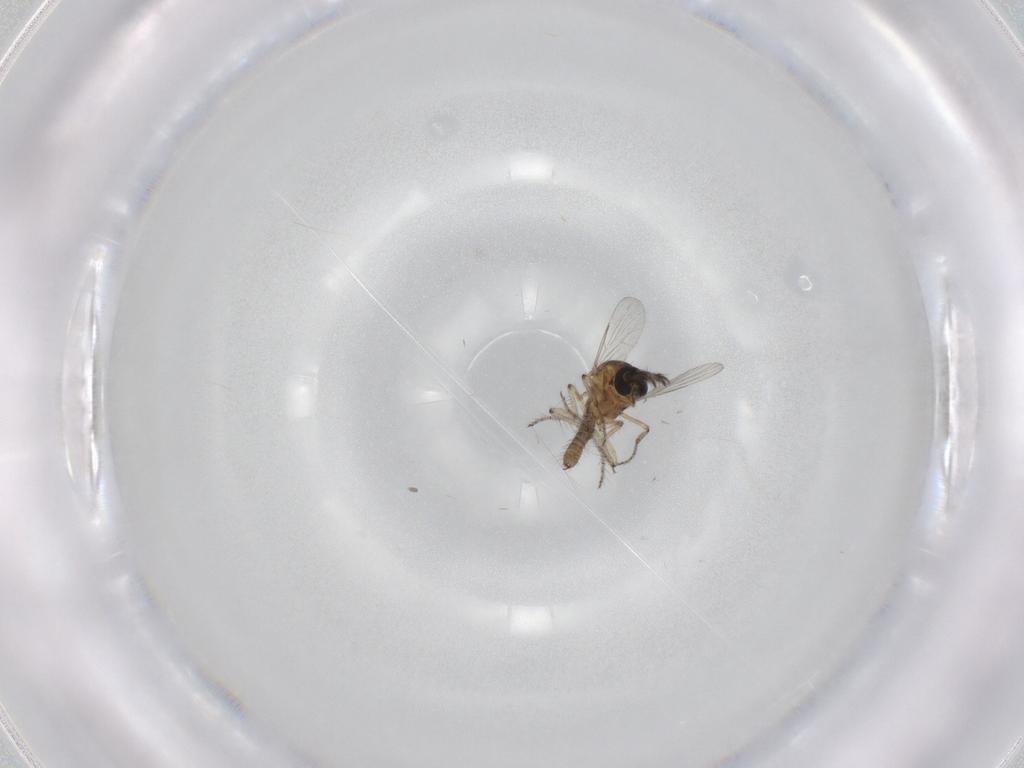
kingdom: Animalia
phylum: Arthropoda
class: Insecta
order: Diptera
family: Ceratopogonidae
